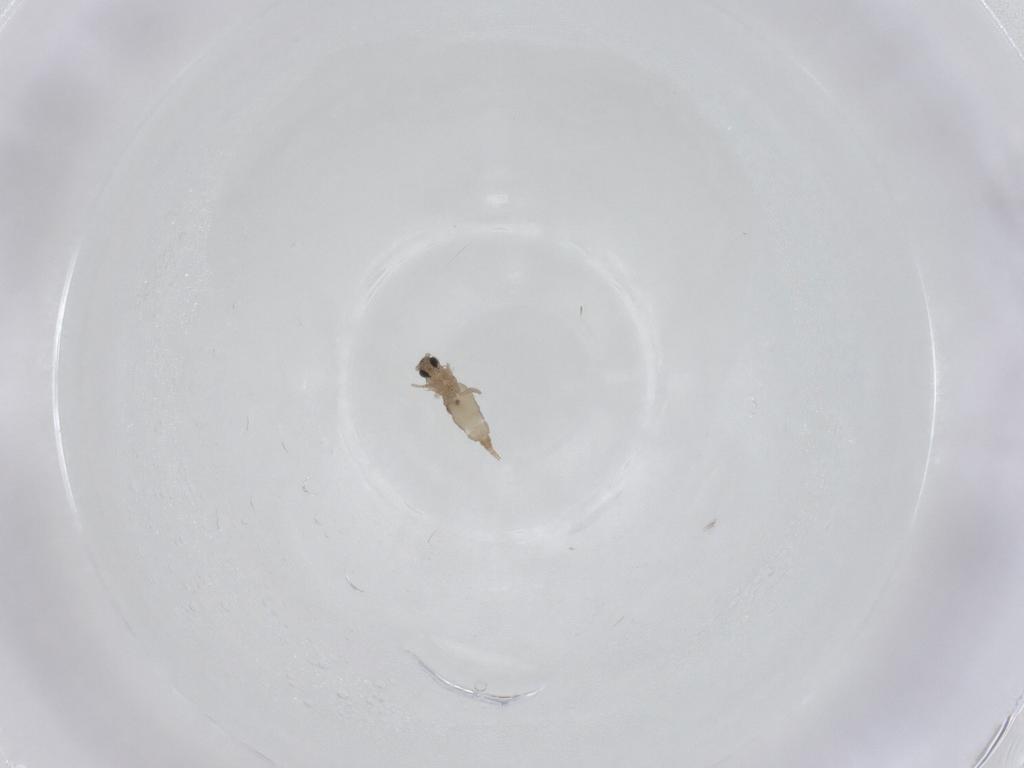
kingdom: Animalia
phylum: Arthropoda
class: Insecta
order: Diptera
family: Cecidomyiidae
